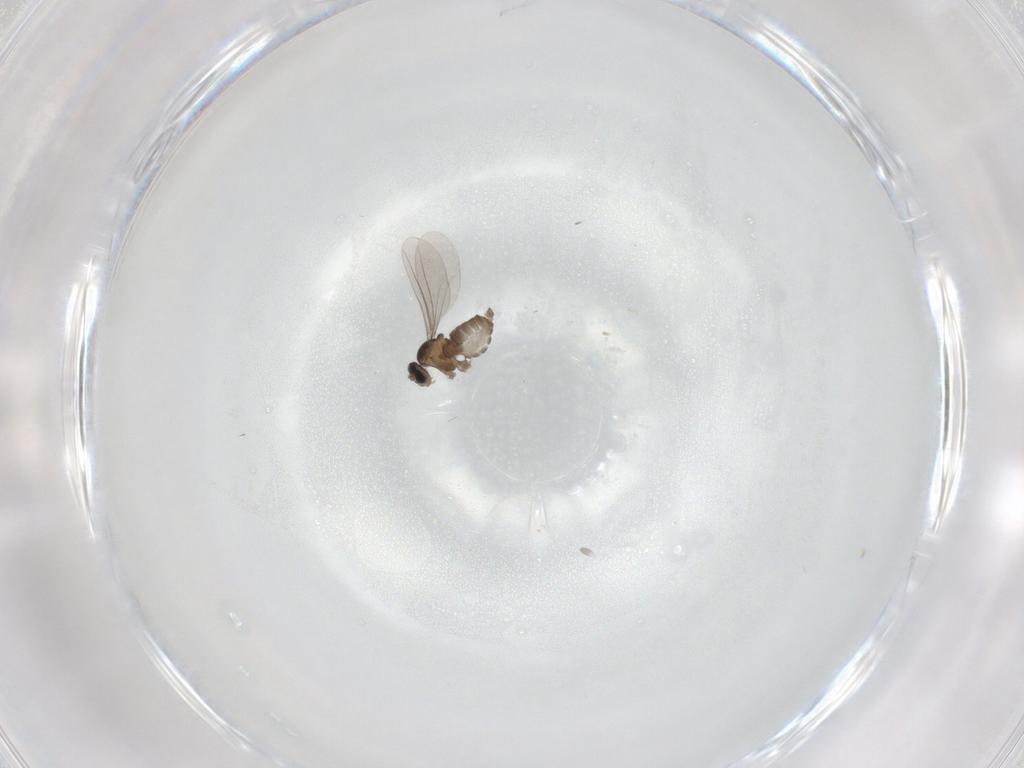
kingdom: Animalia
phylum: Arthropoda
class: Insecta
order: Diptera
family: Cecidomyiidae
